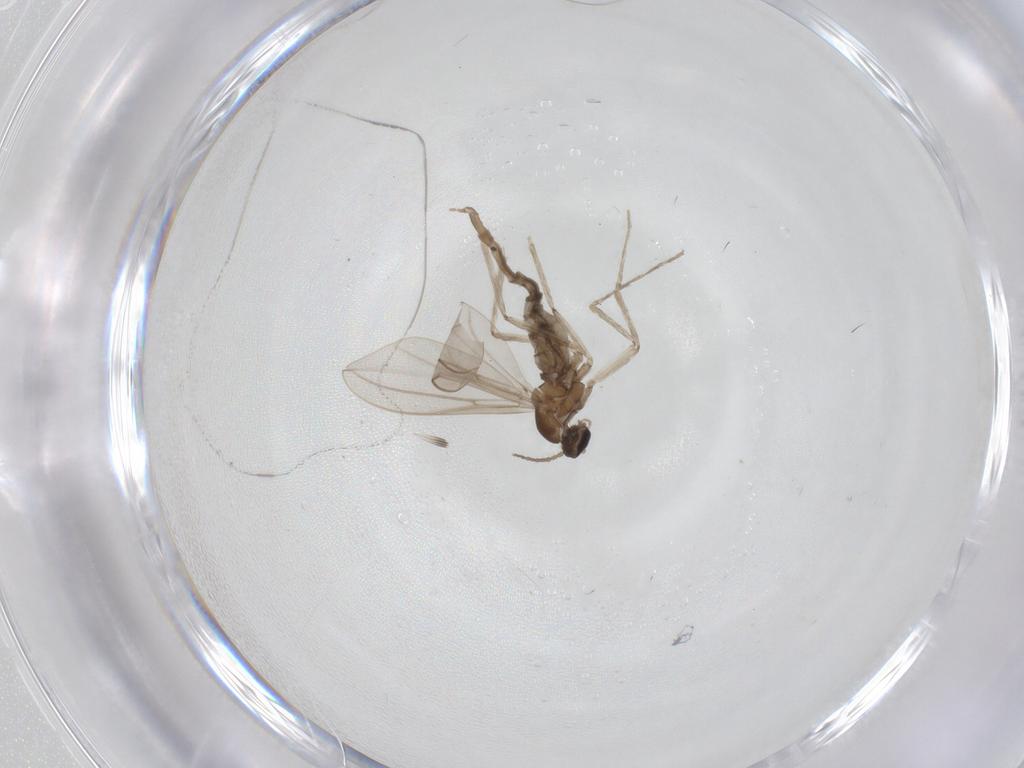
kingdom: Animalia
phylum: Arthropoda
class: Insecta
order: Diptera
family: Cecidomyiidae
